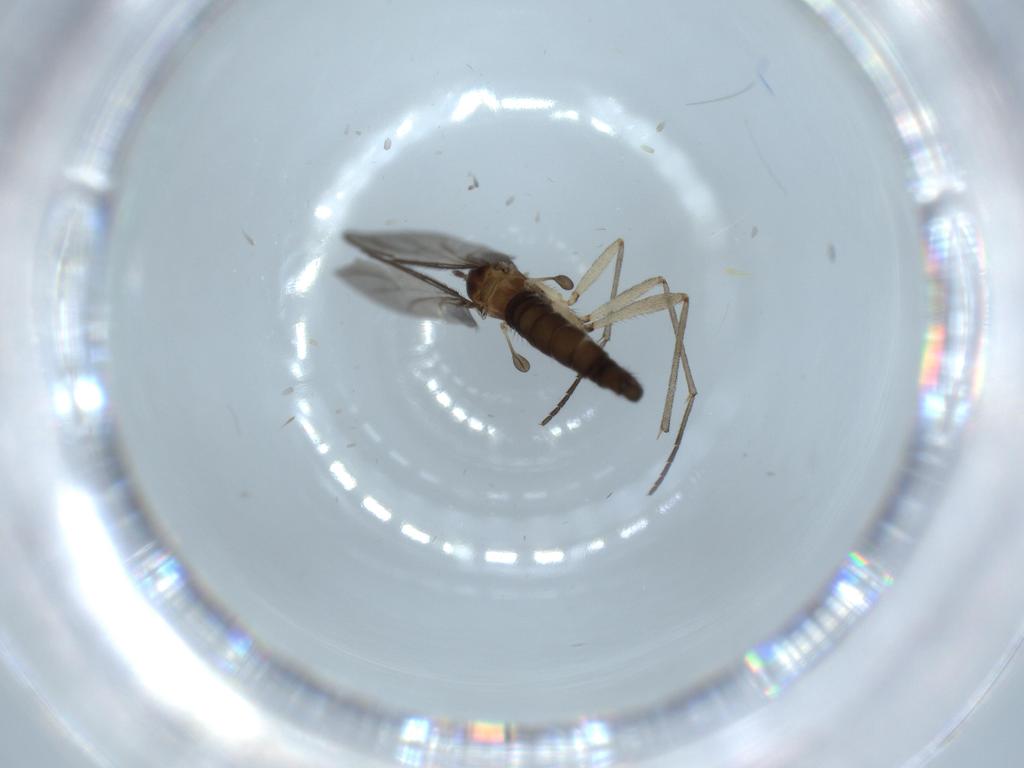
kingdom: Animalia
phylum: Arthropoda
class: Insecta
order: Diptera
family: Sciaridae
